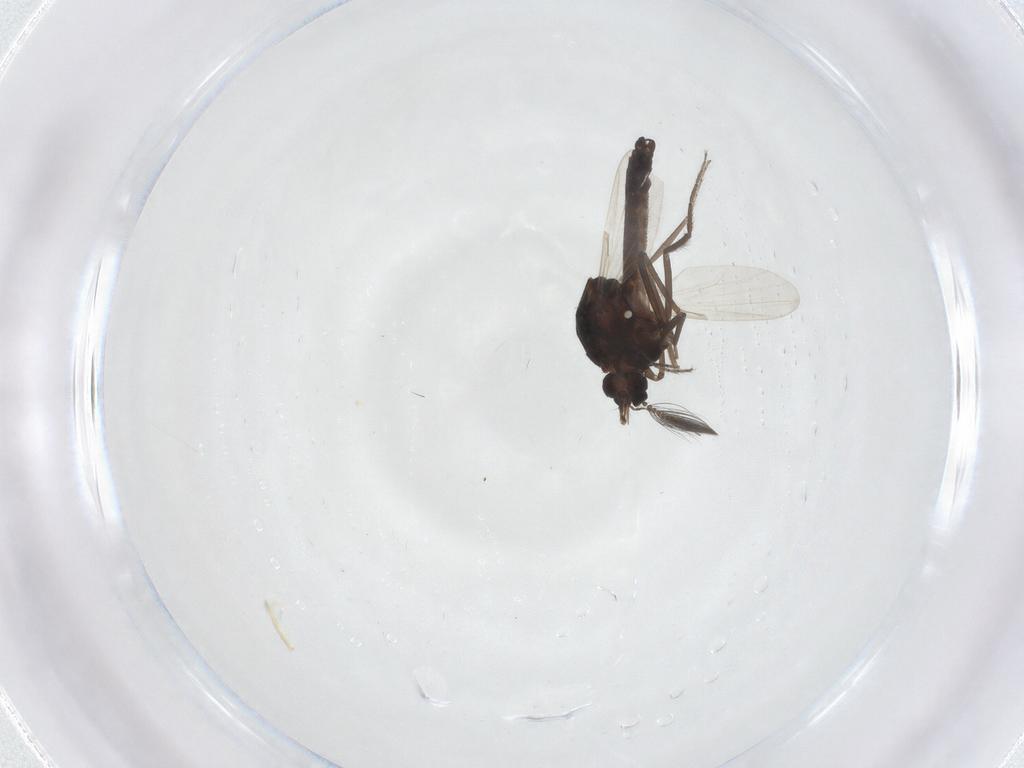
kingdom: Animalia
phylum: Arthropoda
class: Insecta
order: Diptera
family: Ceratopogonidae
